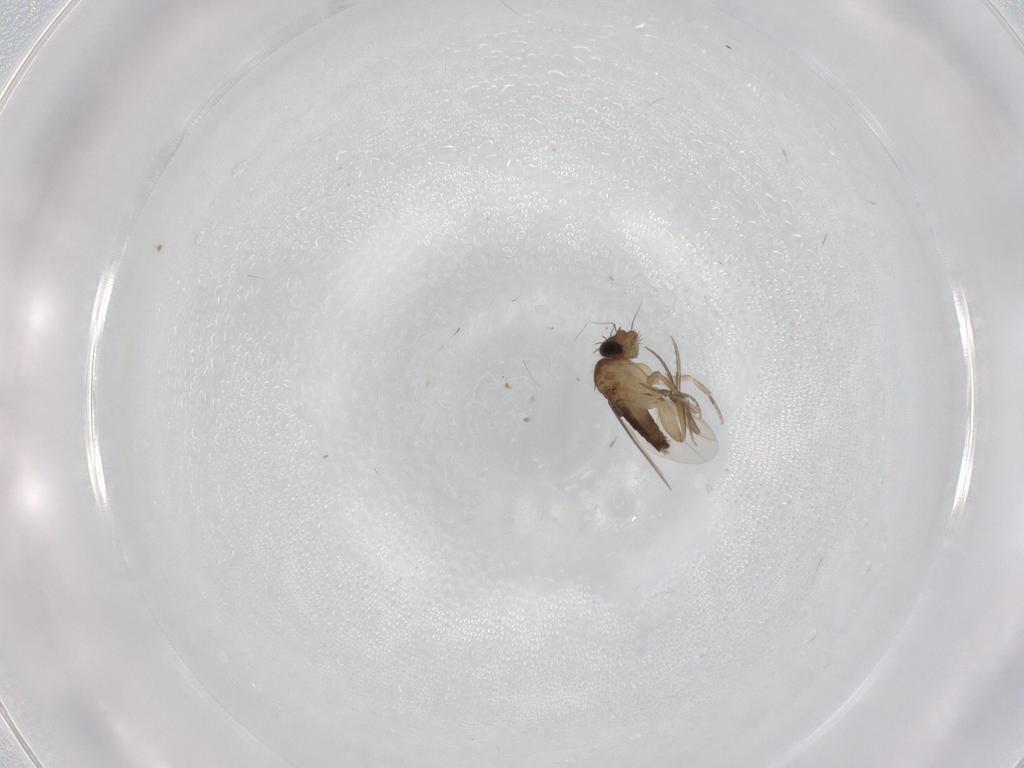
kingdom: Animalia
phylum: Arthropoda
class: Insecta
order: Diptera
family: Phoridae
